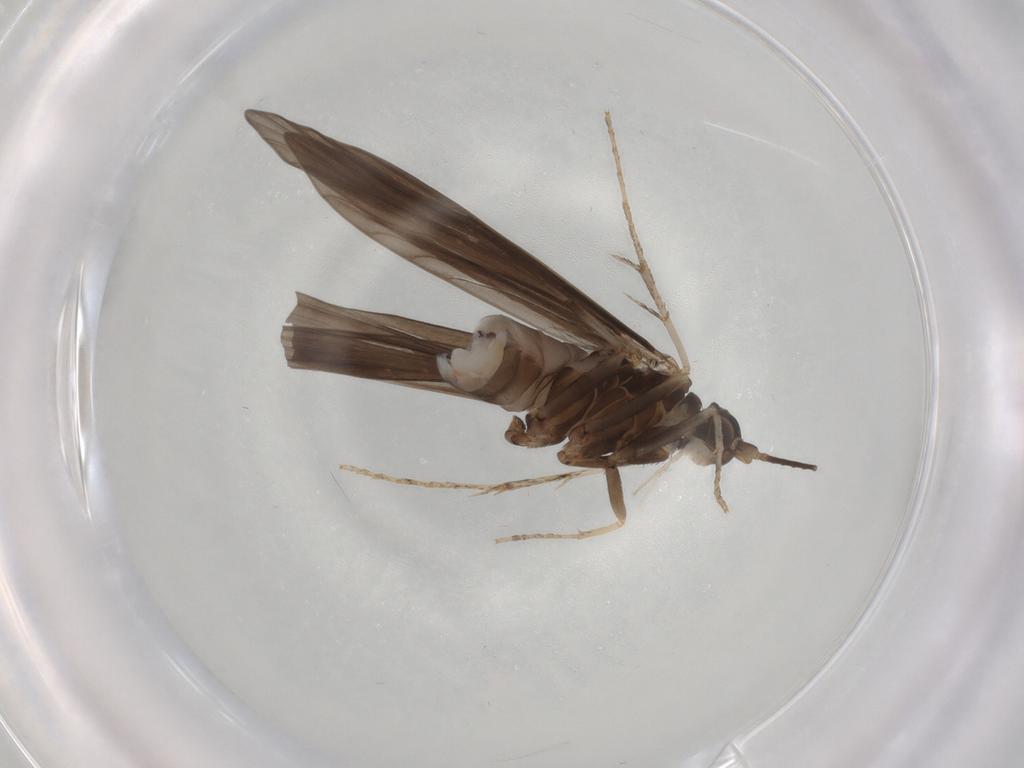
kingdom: Animalia
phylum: Arthropoda
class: Insecta
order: Trichoptera
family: Xiphocentronidae
